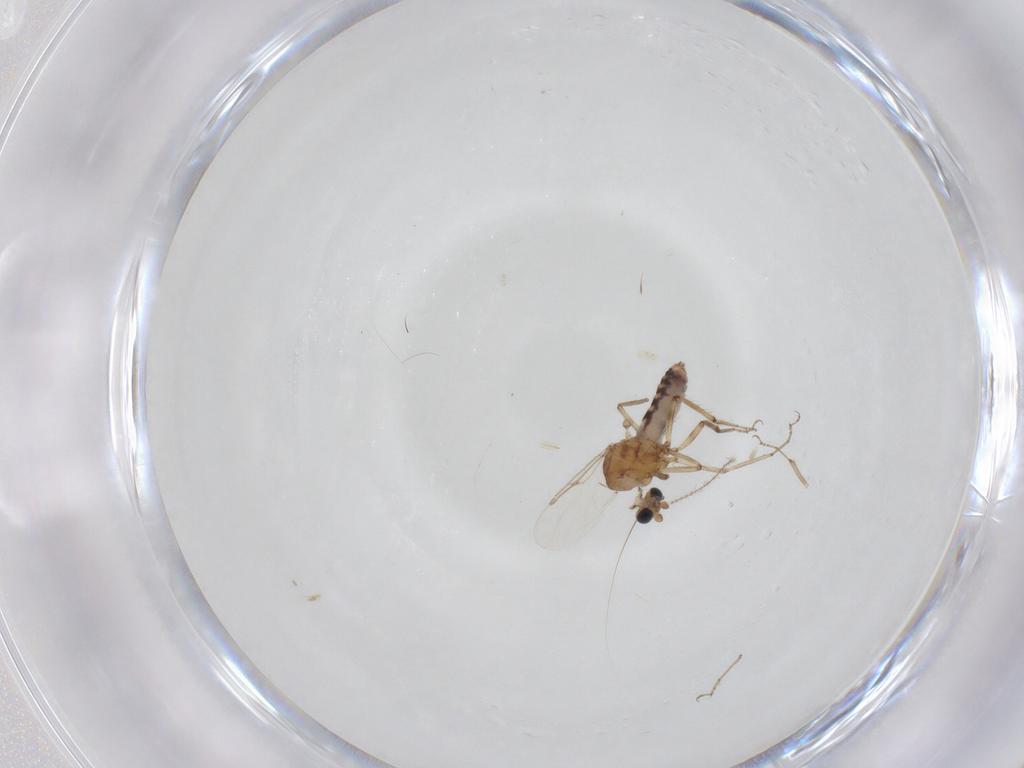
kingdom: Animalia
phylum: Arthropoda
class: Insecta
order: Diptera
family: Ceratopogonidae
